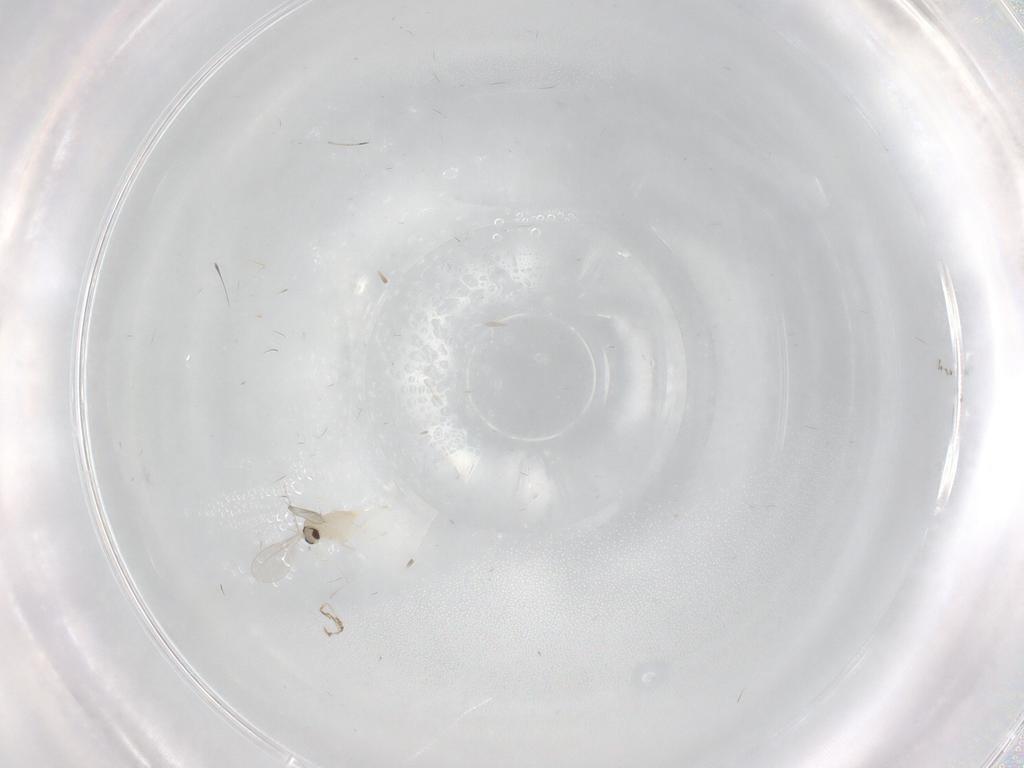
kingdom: Animalia
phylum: Arthropoda
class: Insecta
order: Diptera
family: Cecidomyiidae
